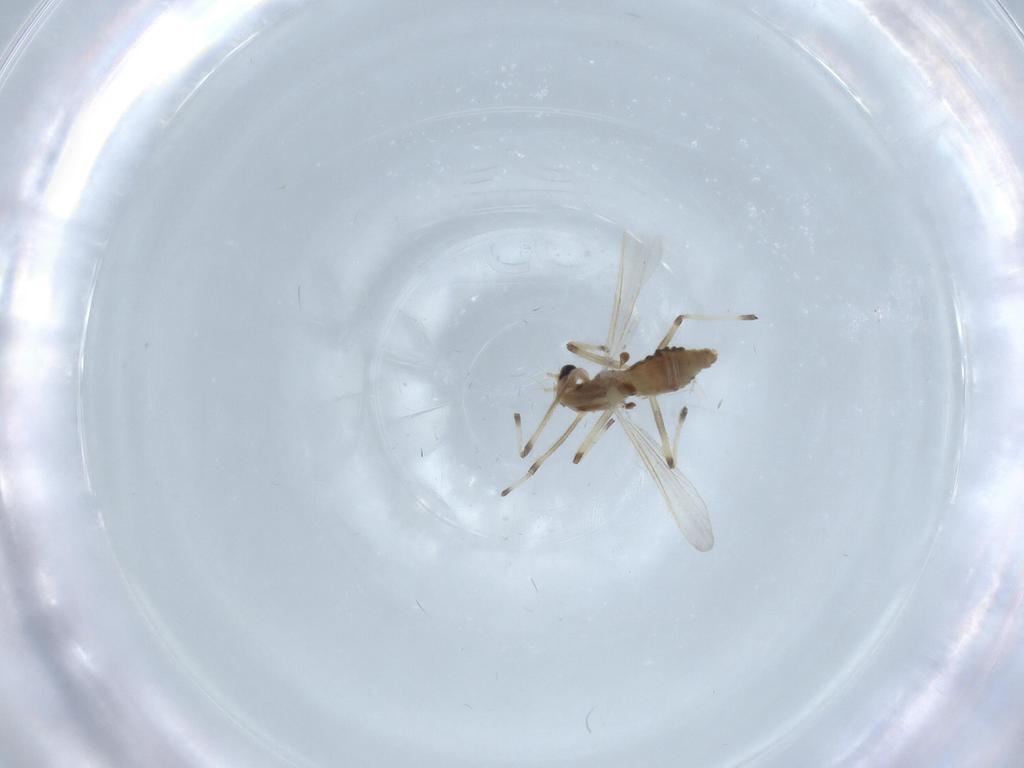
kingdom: Animalia
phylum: Arthropoda
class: Insecta
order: Diptera
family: Chironomidae
